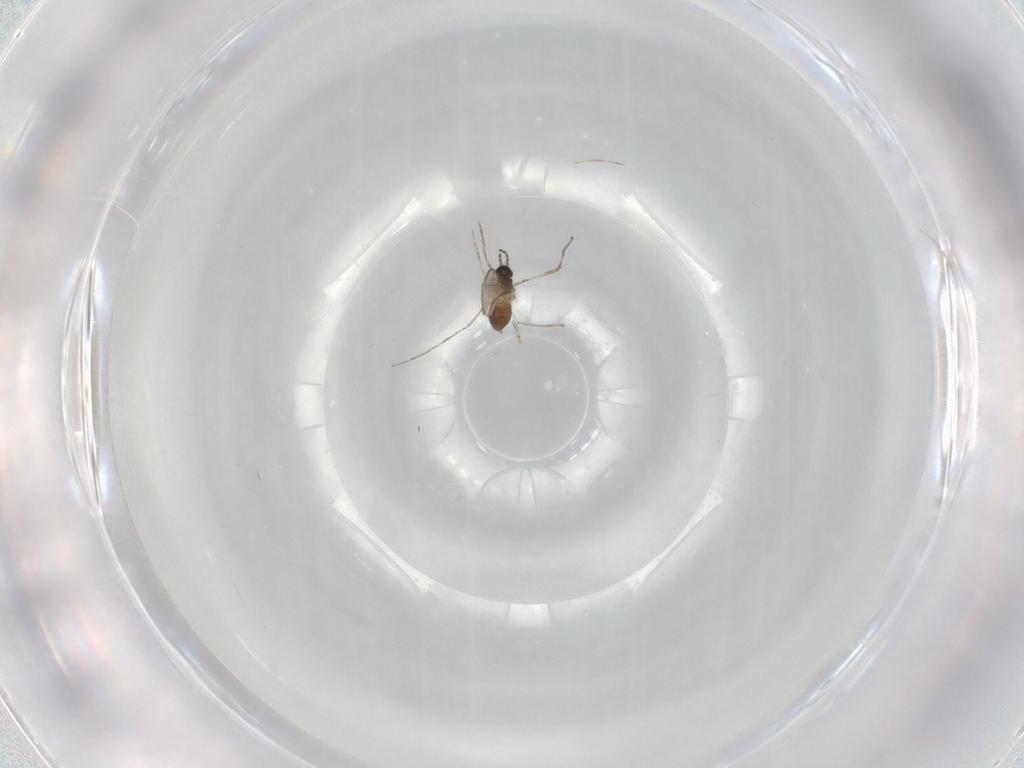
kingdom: Animalia
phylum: Arthropoda
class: Insecta
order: Diptera
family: Cecidomyiidae
